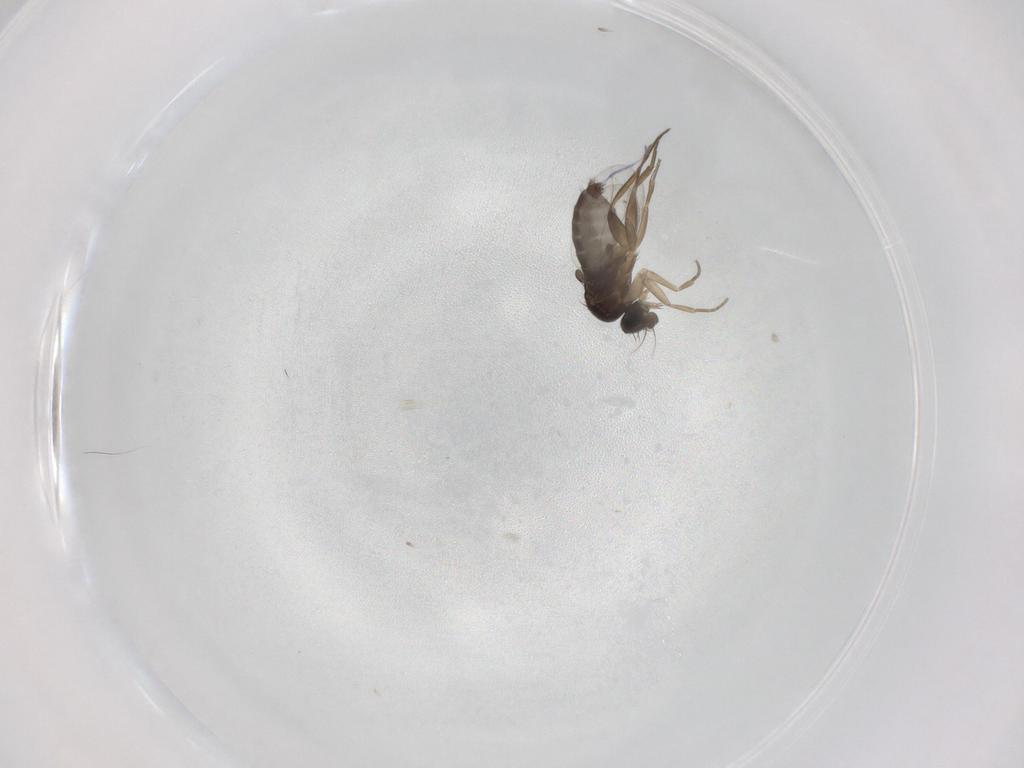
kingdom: Animalia
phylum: Arthropoda
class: Insecta
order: Diptera
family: Phoridae
